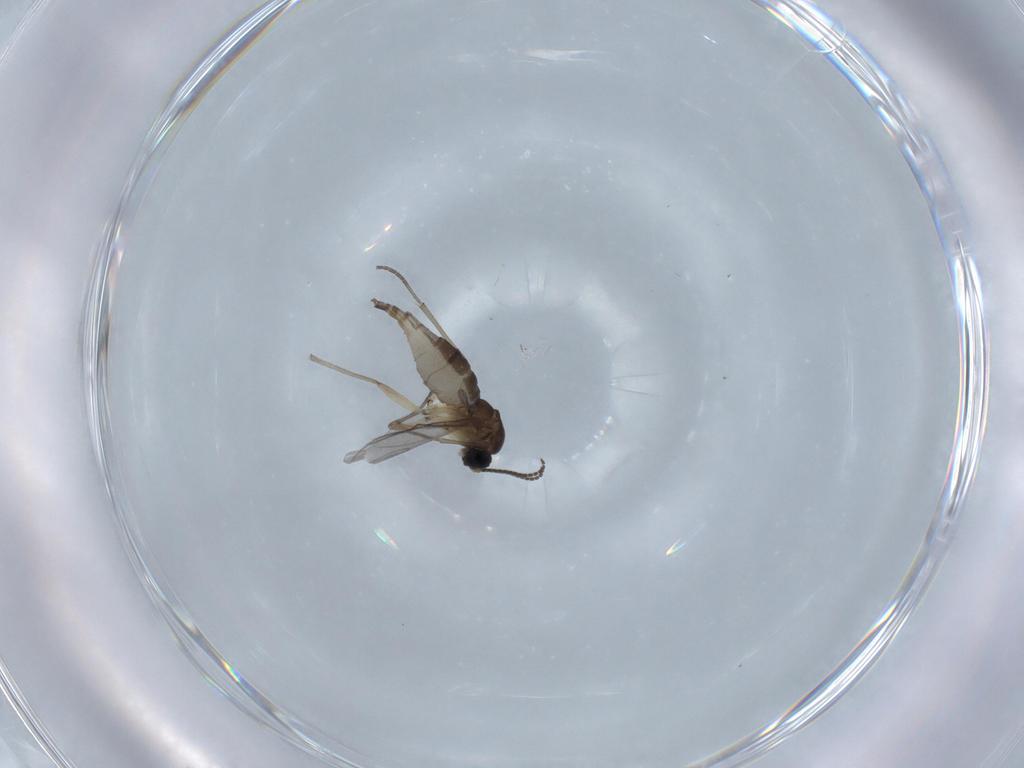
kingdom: Animalia
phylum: Arthropoda
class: Insecta
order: Diptera
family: Sciaridae
